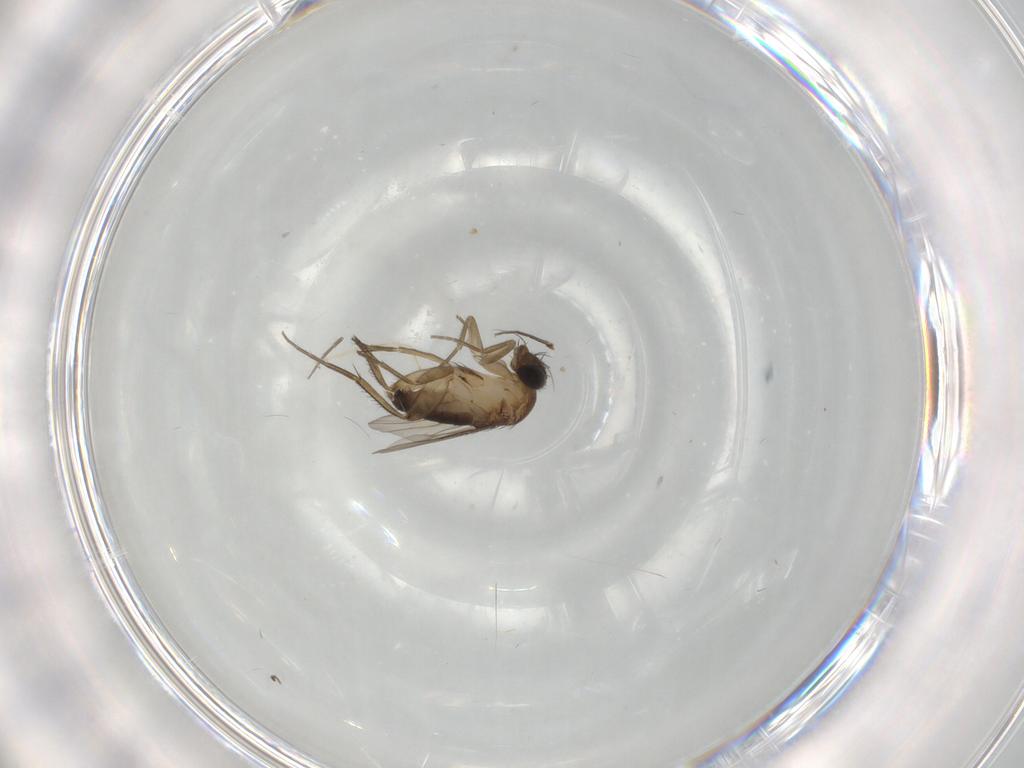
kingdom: Animalia
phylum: Arthropoda
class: Insecta
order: Diptera
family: Phoridae
